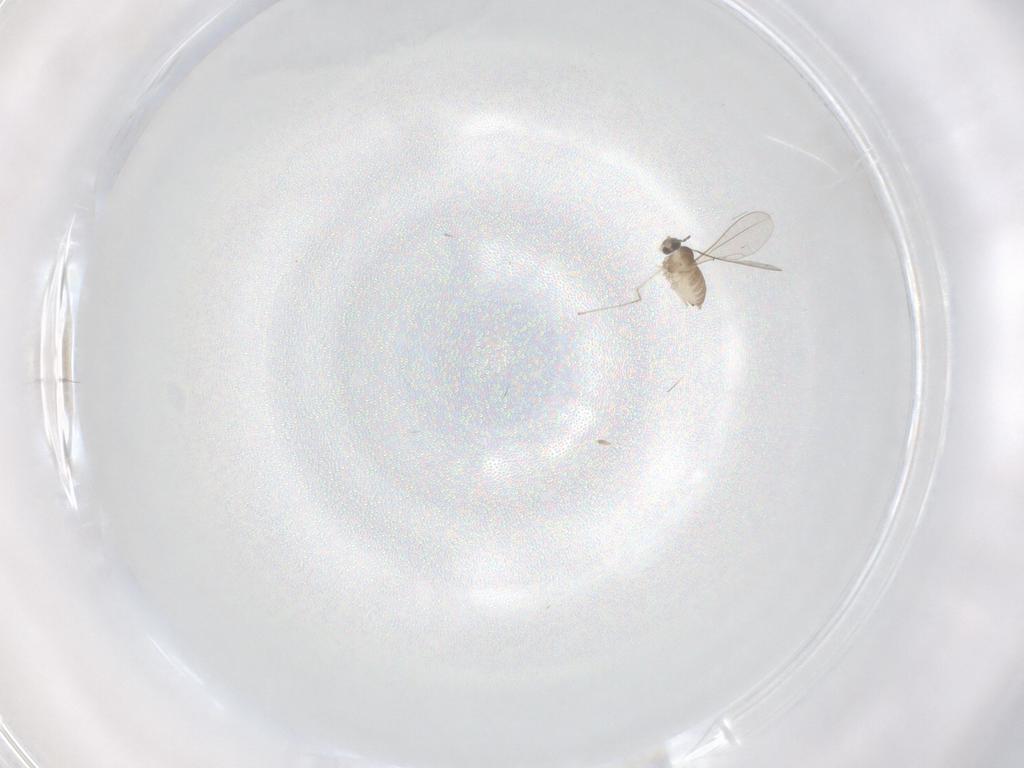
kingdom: Animalia
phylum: Arthropoda
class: Insecta
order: Diptera
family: Cecidomyiidae
